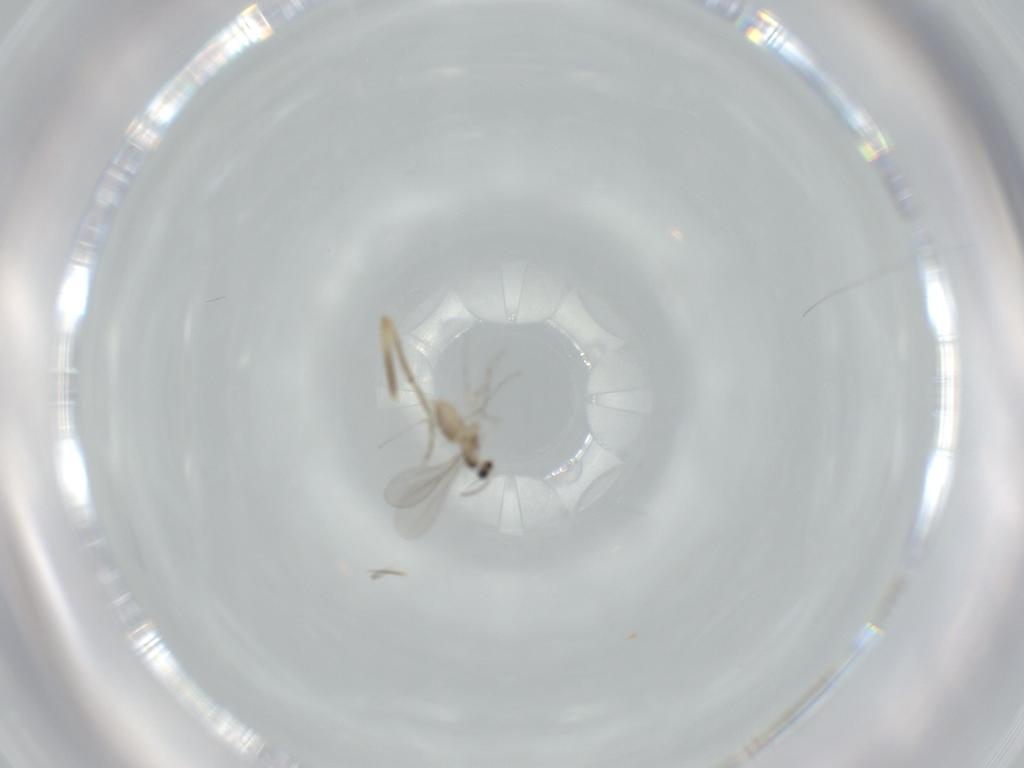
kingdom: Animalia
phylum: Arthropoda
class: Insecta
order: Diptera
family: Cecidomyiidae
